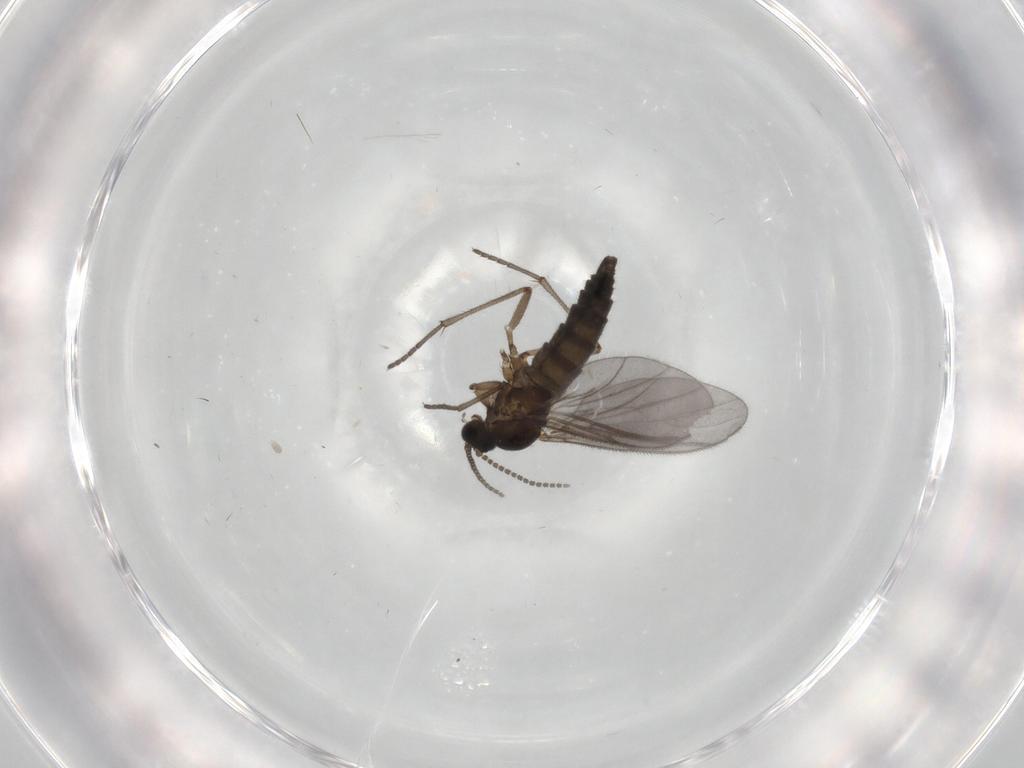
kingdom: Animalia
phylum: Arthropoda
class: Insecta
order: Diptera
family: Sciaridae
